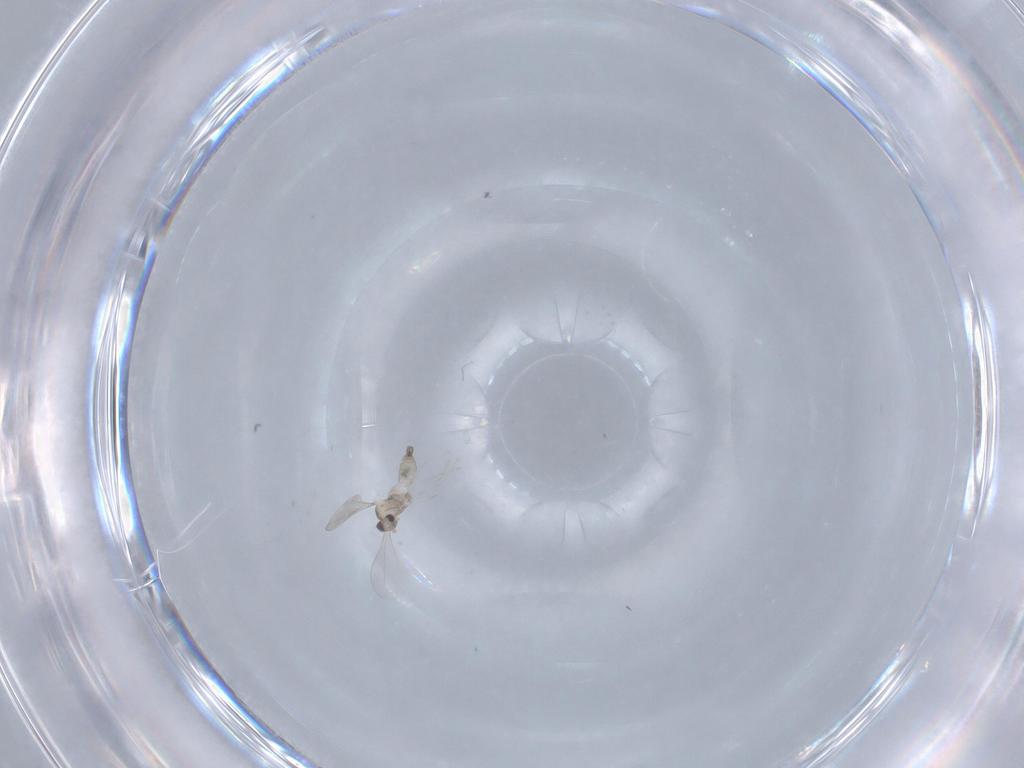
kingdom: Animalia
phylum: Arthropoda
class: Insecta
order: Diptera
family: Cecidomyiidae
